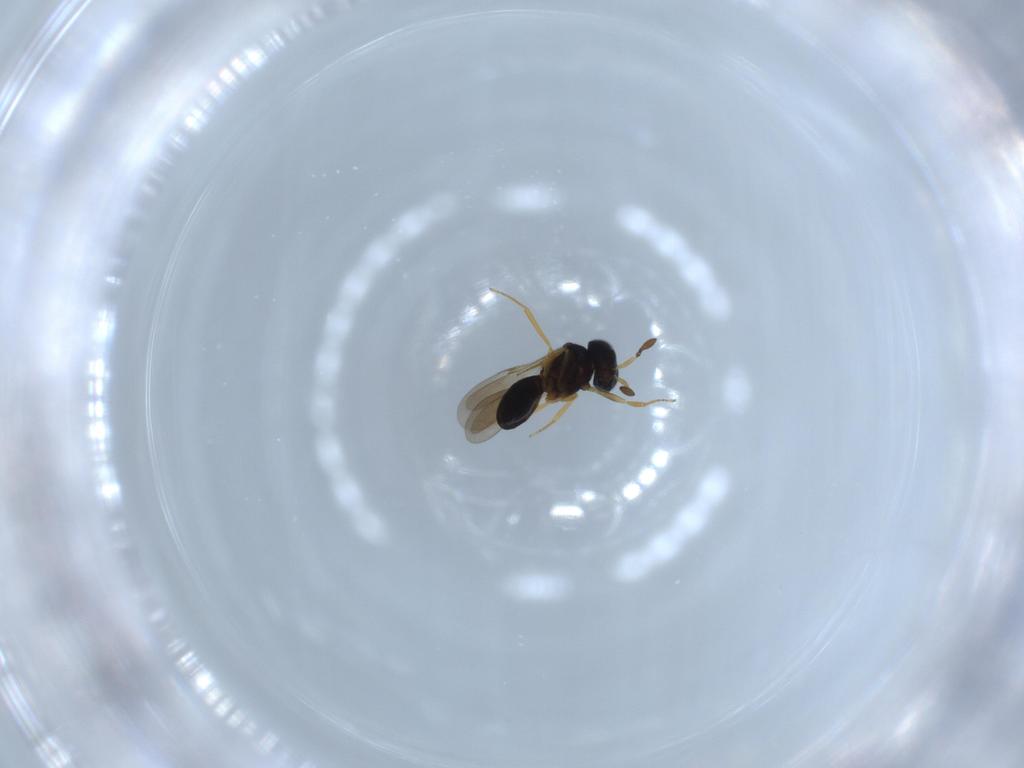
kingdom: Animalia
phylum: Arthropoda
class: Insecta
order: Hymenoptera
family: Scelionidae
